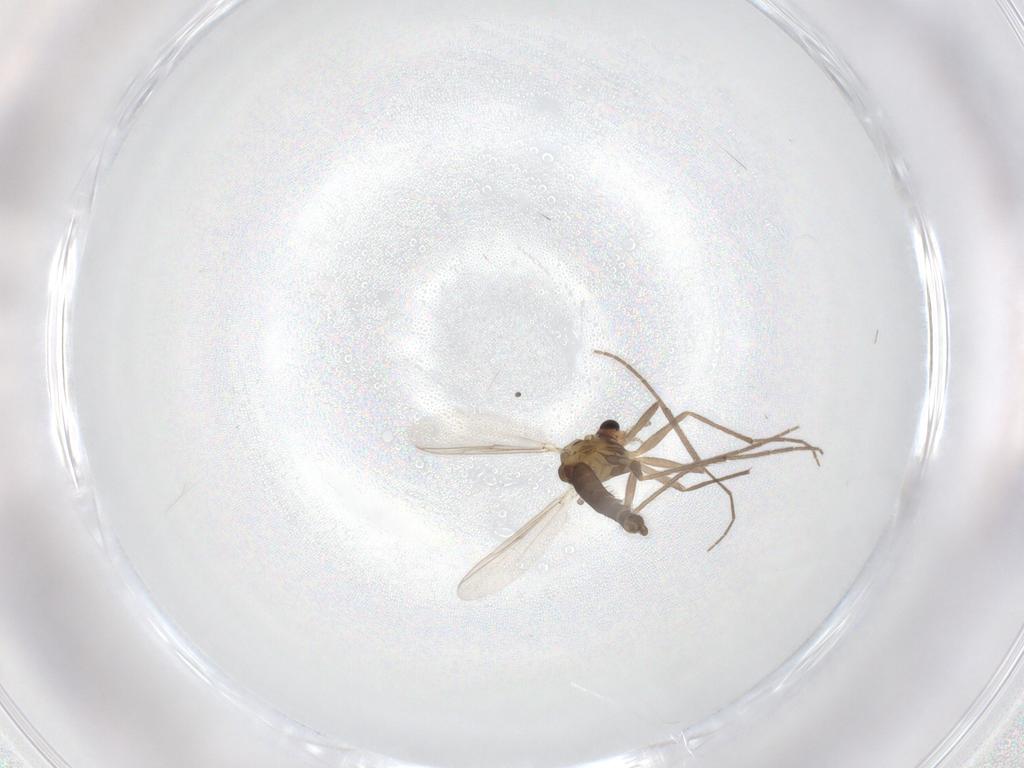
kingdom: Animalia
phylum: Arthropoda
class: Insecta
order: Diptera
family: Chironomidae
